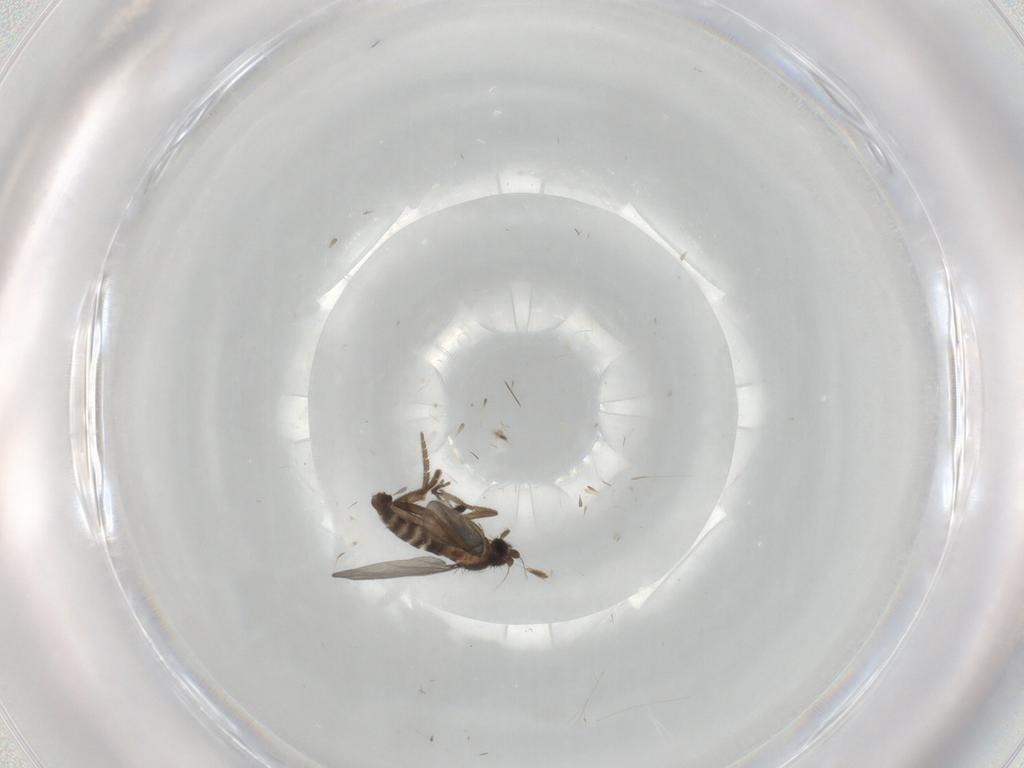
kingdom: Animalia
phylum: Arthropoda
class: Insecta
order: Diptera
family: Phoridae
